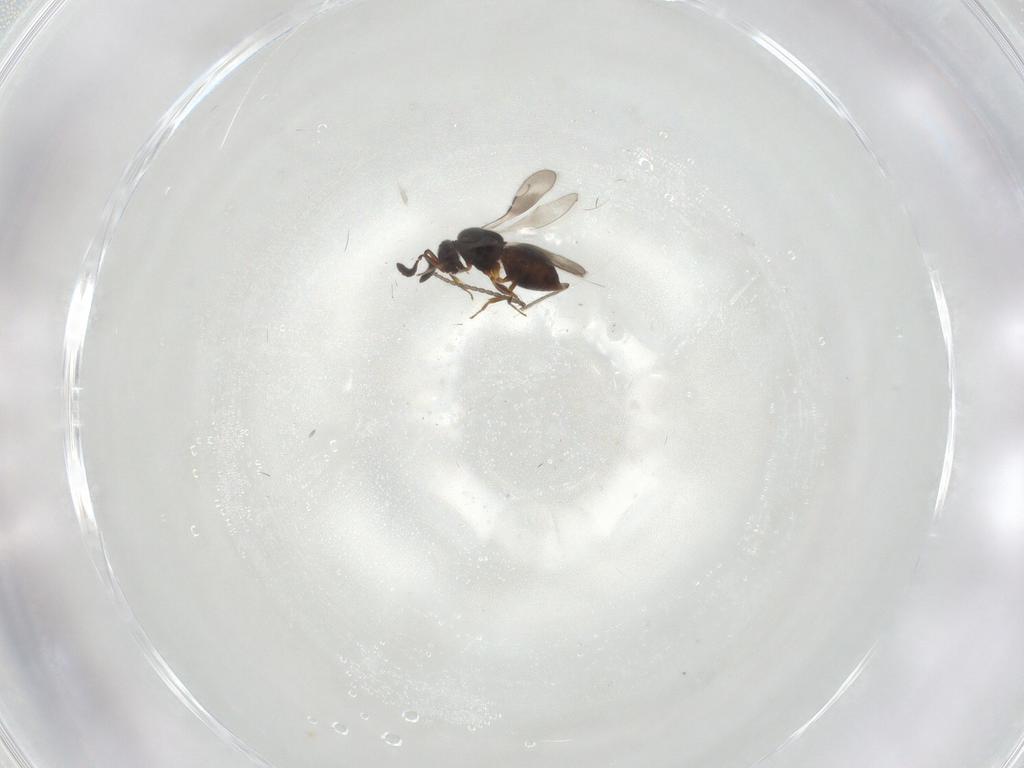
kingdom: Animalia
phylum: Arthropoda
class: Insecta
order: Hymenoptera
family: Ceraphronidae
